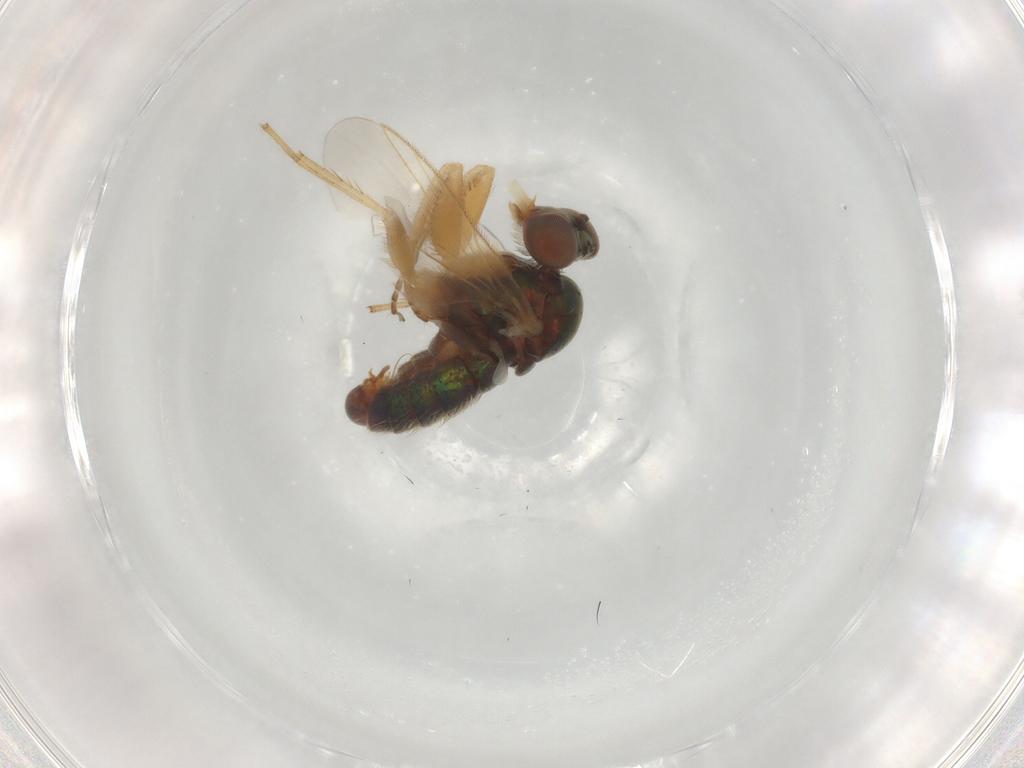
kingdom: Animalia
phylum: Arthropoda
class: Insecta
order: Diptera
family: Dolichopodidae
